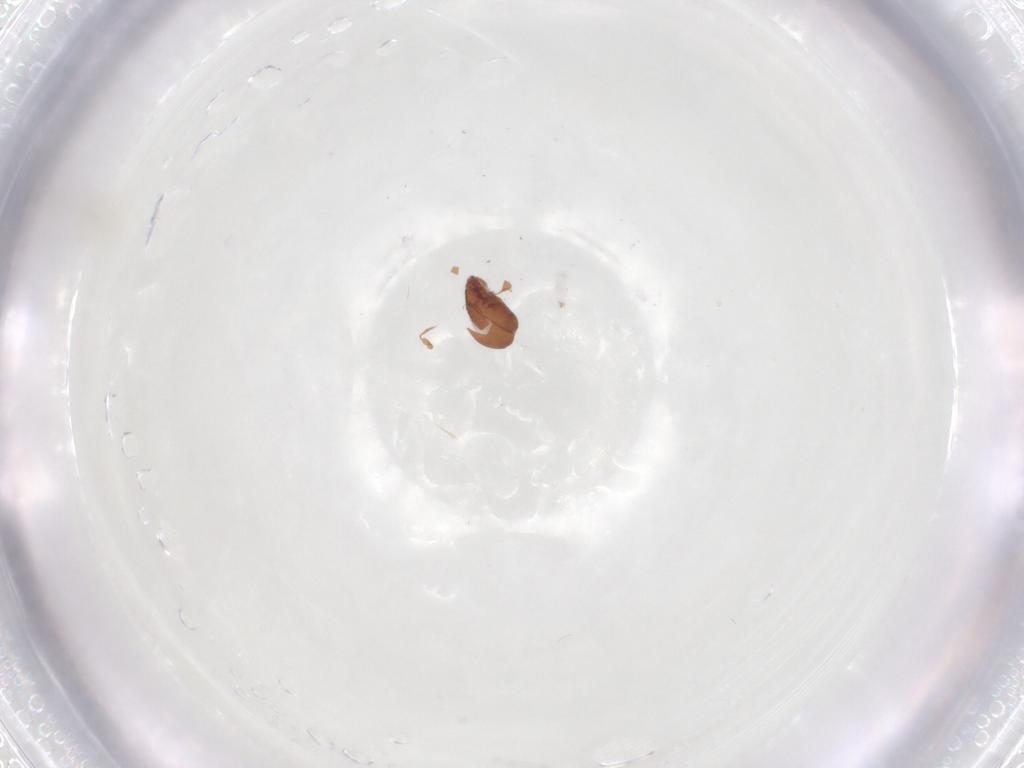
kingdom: Animalia
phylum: Arthropoda
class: Arachnida
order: Trombidiformes
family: Anystidae
